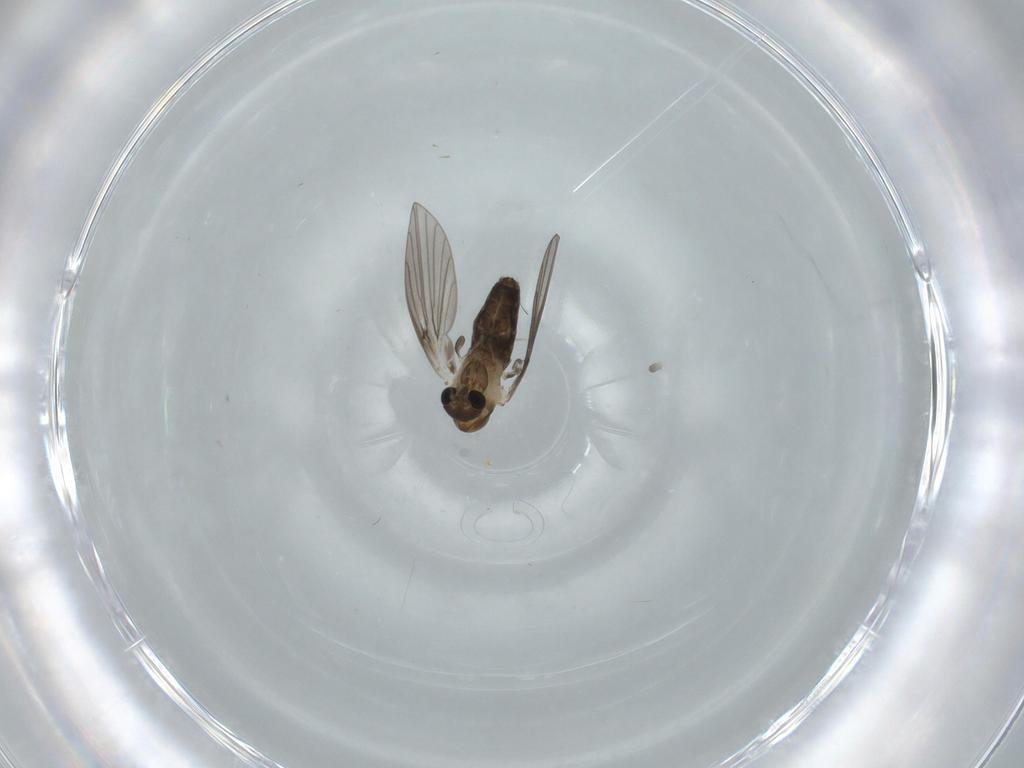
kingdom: Animalia
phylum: Arthropoda
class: Insecta
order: Diptera
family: Psychodidae
